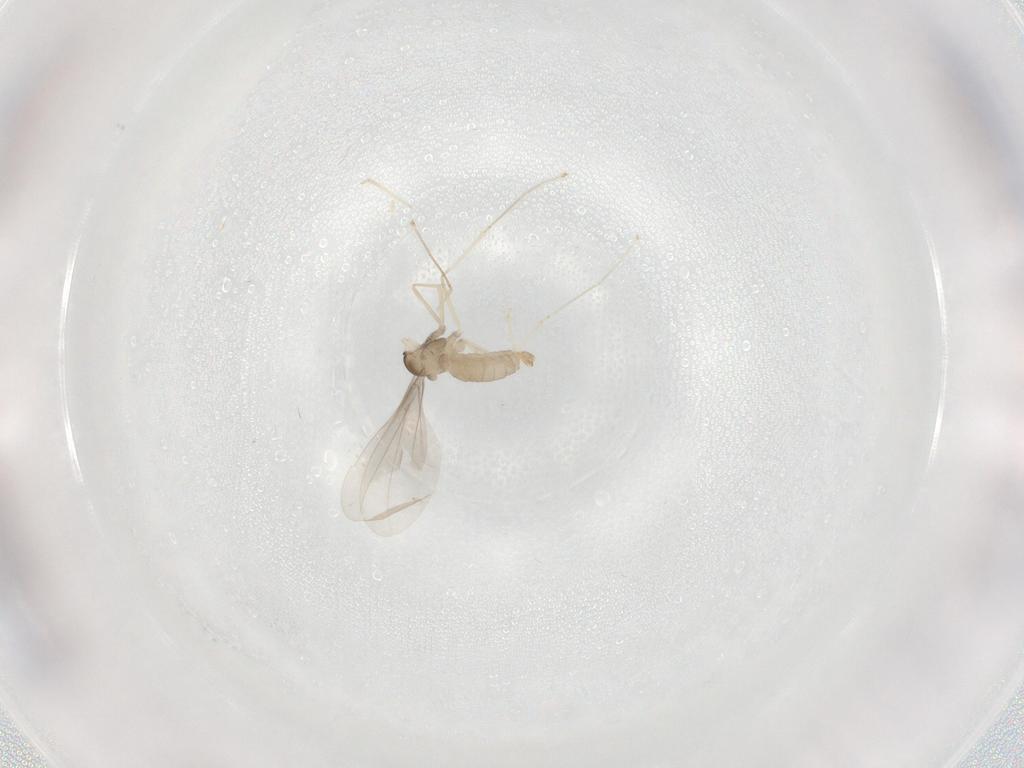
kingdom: Animalia
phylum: Arthropoda
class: Insecta
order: Diptera
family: Cecidomyiidae
